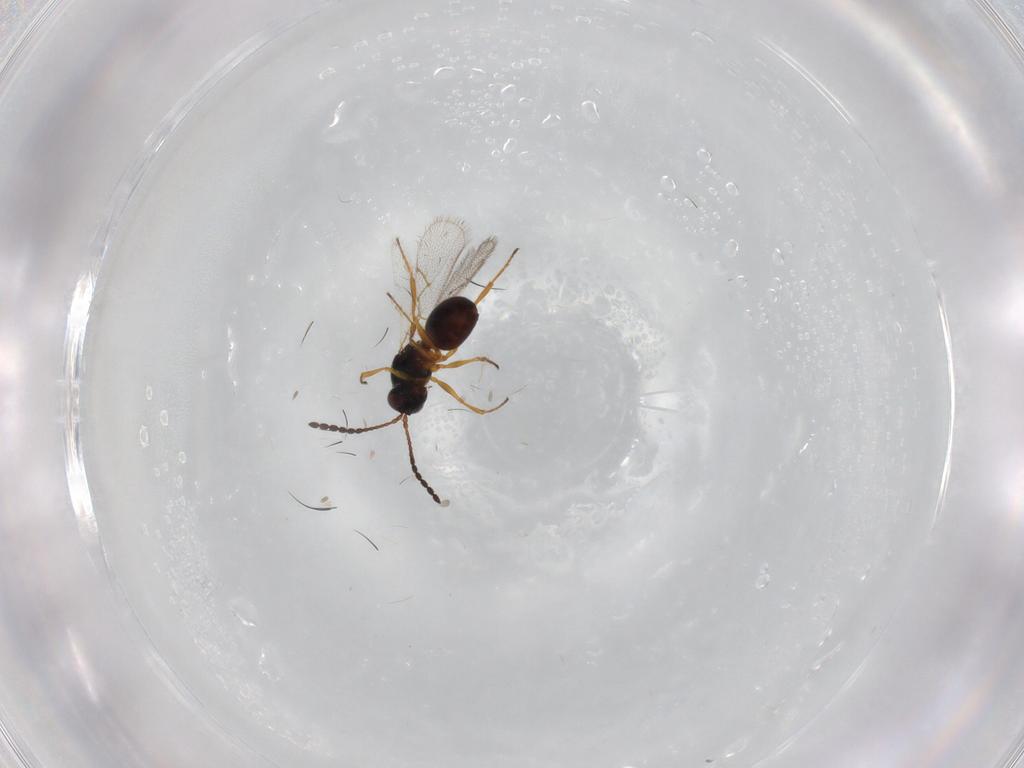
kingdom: Animalia
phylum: Arthropoda
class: Insecta
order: Hymenoptera
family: Figitidae
